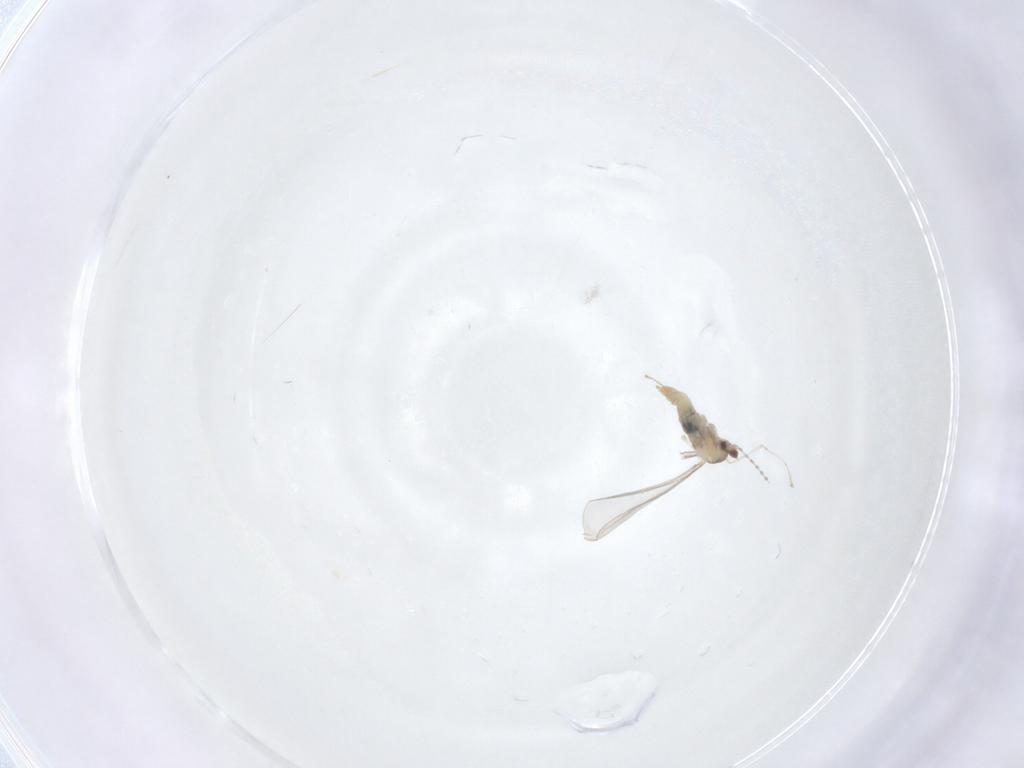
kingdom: Animalia
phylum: Arthropoda
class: Insecta
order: Diptera
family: Cecidomyiidae
